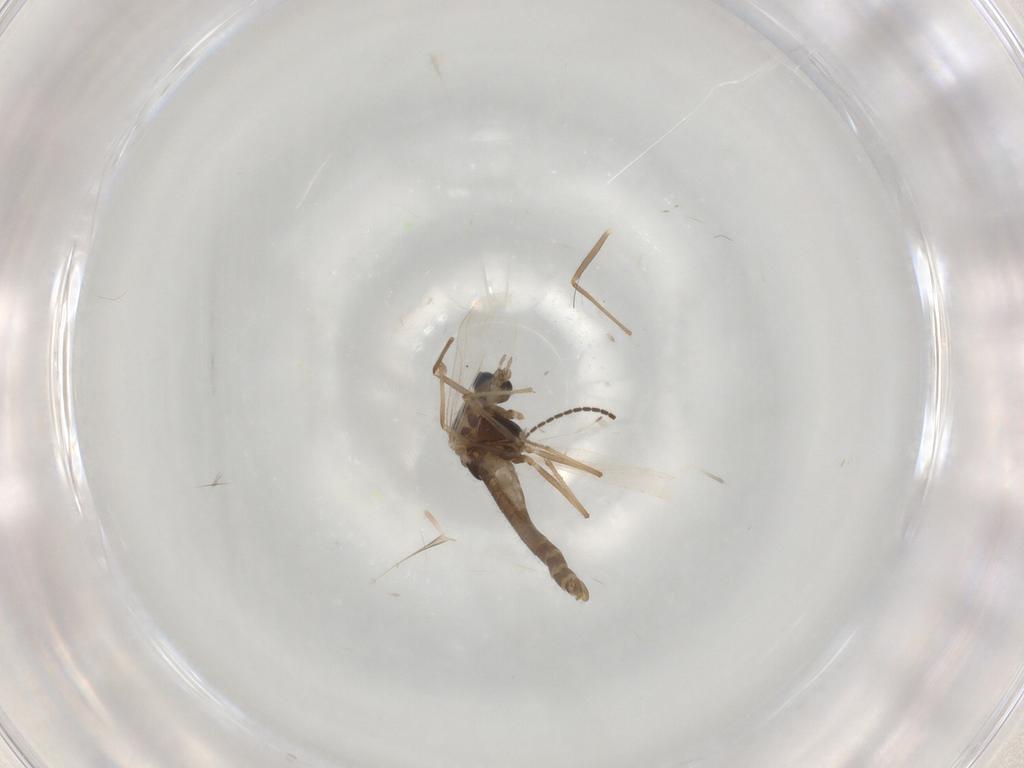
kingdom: Animalia
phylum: Arthropoda
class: Insecta
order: Diptera
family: Chironomidae
